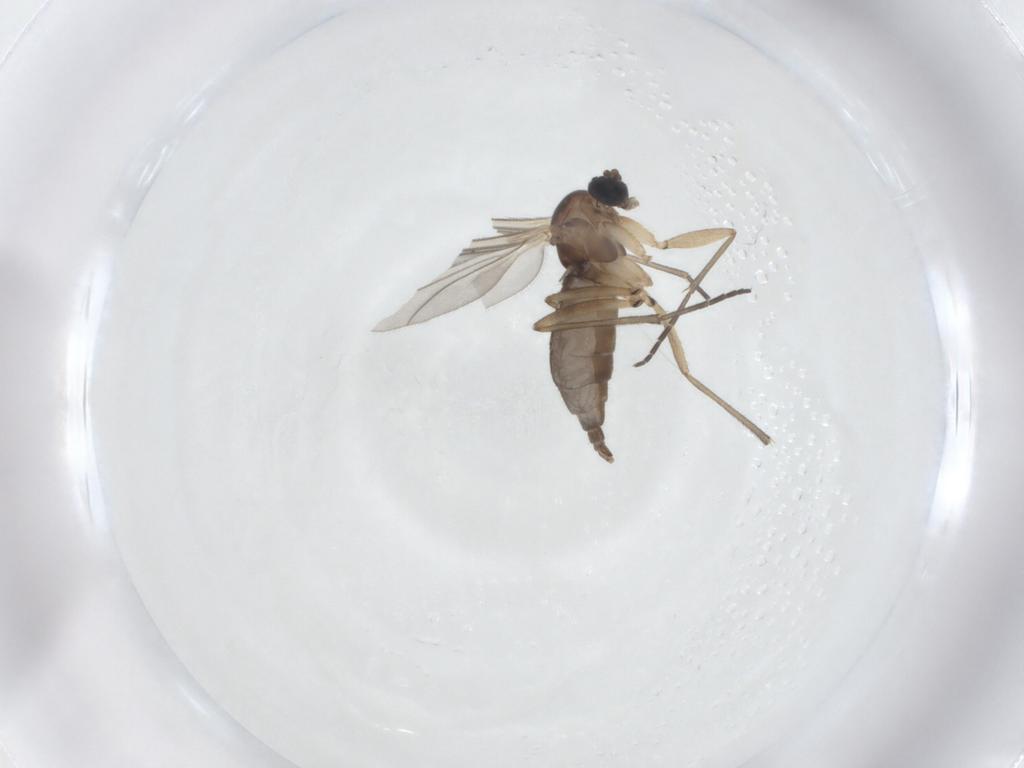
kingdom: Animalia
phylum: Arthropoda
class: Insecta
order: Diptera
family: Sciaridae
